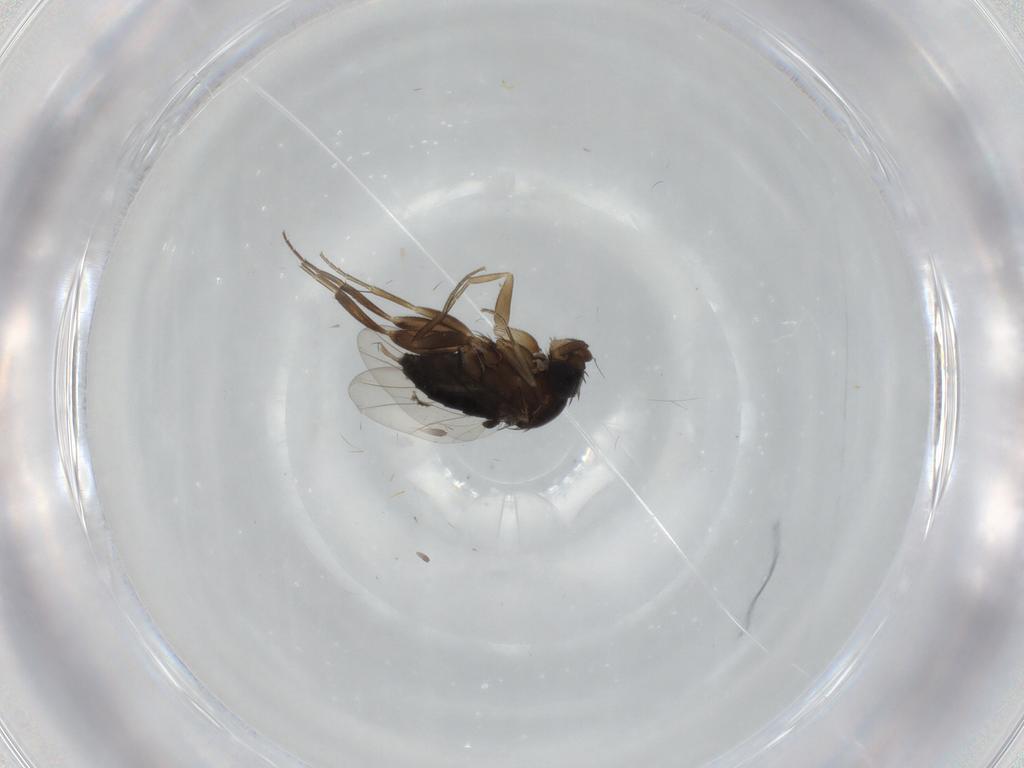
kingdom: Animalia
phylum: Arthropoda
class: Insecta
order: Diptera
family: Phoridae
